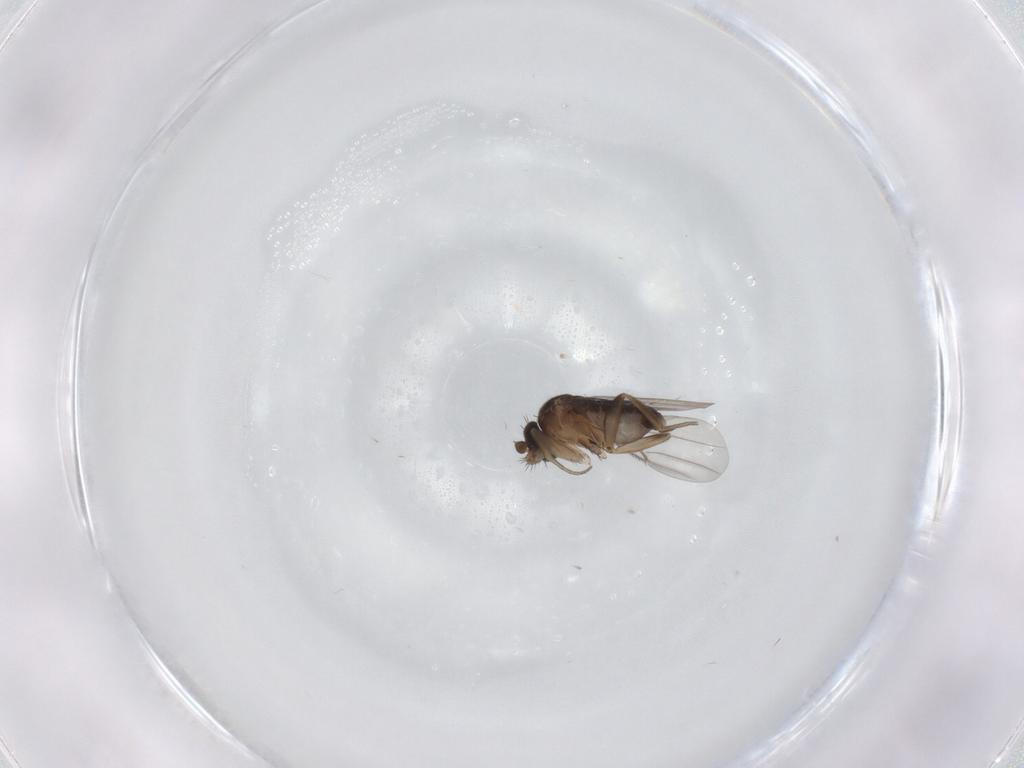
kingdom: Animalia
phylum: Arthropoda
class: Insecta
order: Diptera
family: Phoridae
